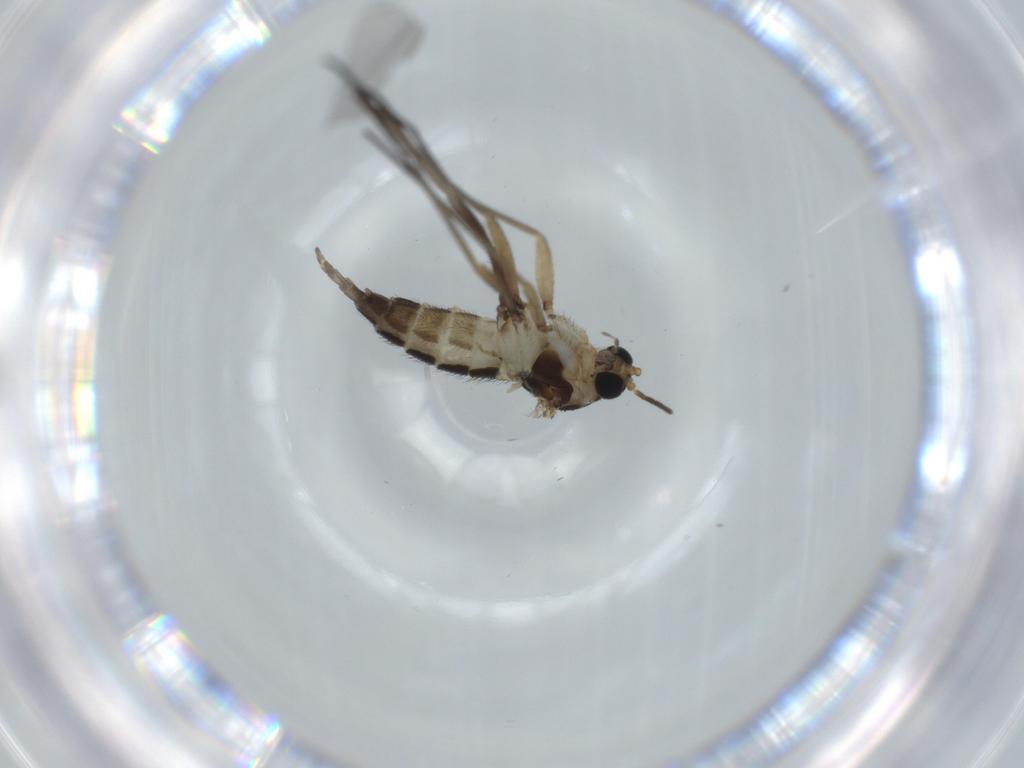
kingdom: Animalia
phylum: Arthropoda
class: Insecta
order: Diptera
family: Sciaridae
